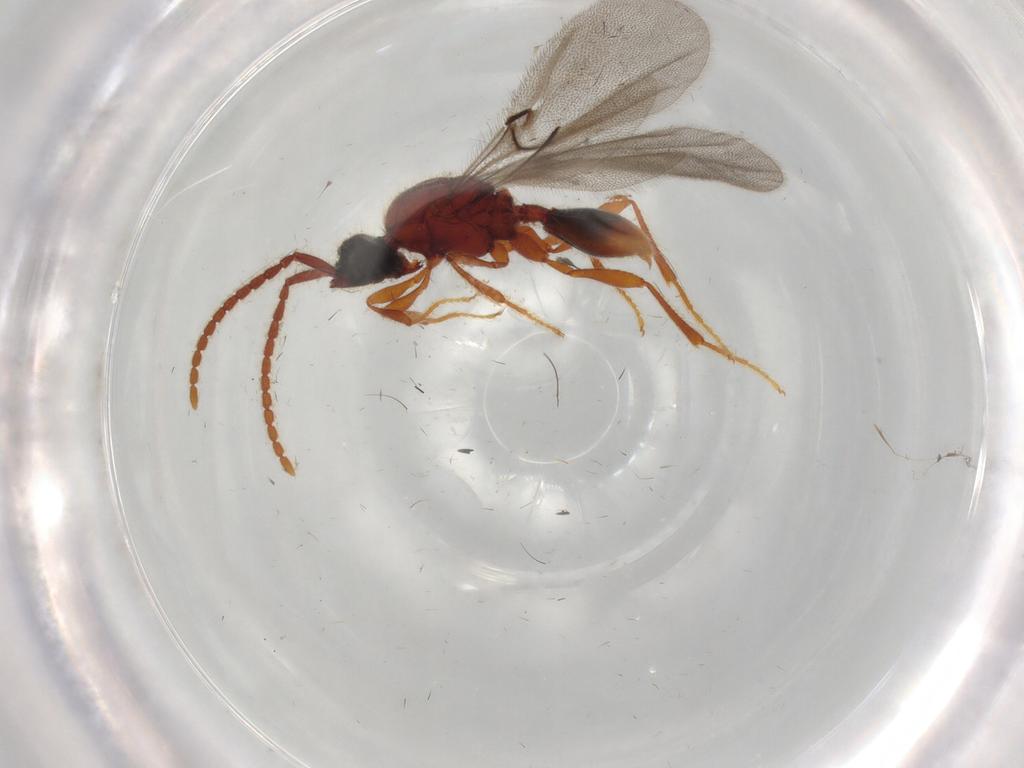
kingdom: Animalia
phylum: Arthropoda
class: Insecta
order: Hymenoptera
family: Diapriidae
